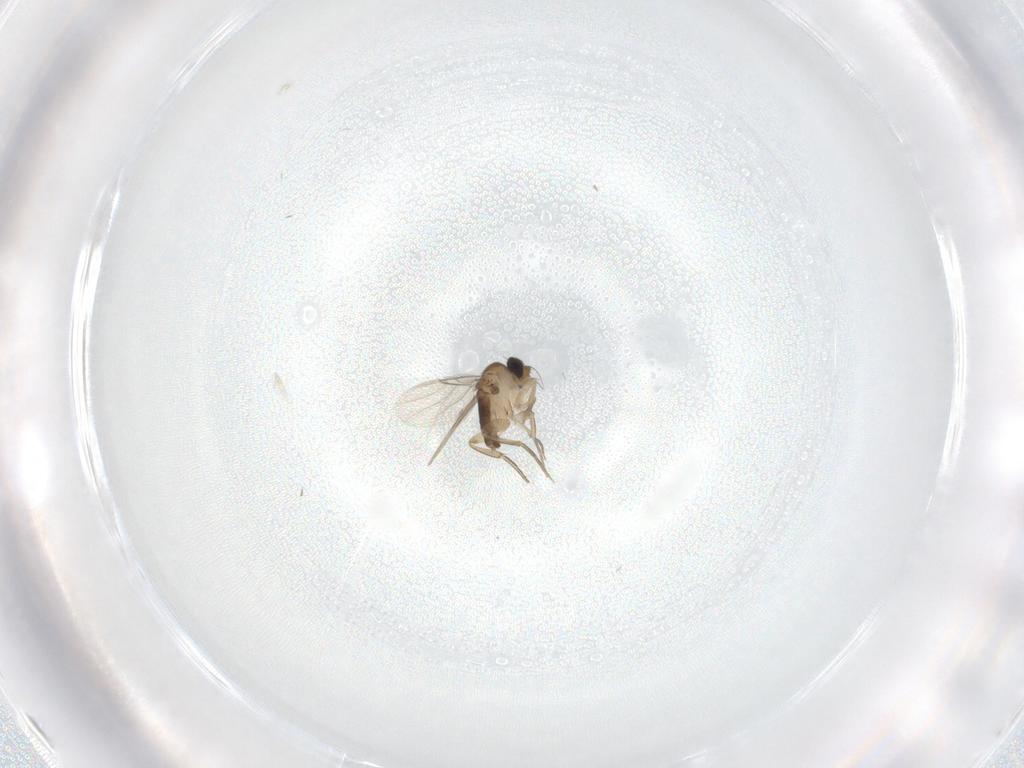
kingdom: Animalia
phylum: Arthropoda
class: Insecta
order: Diptera
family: Phoridae
